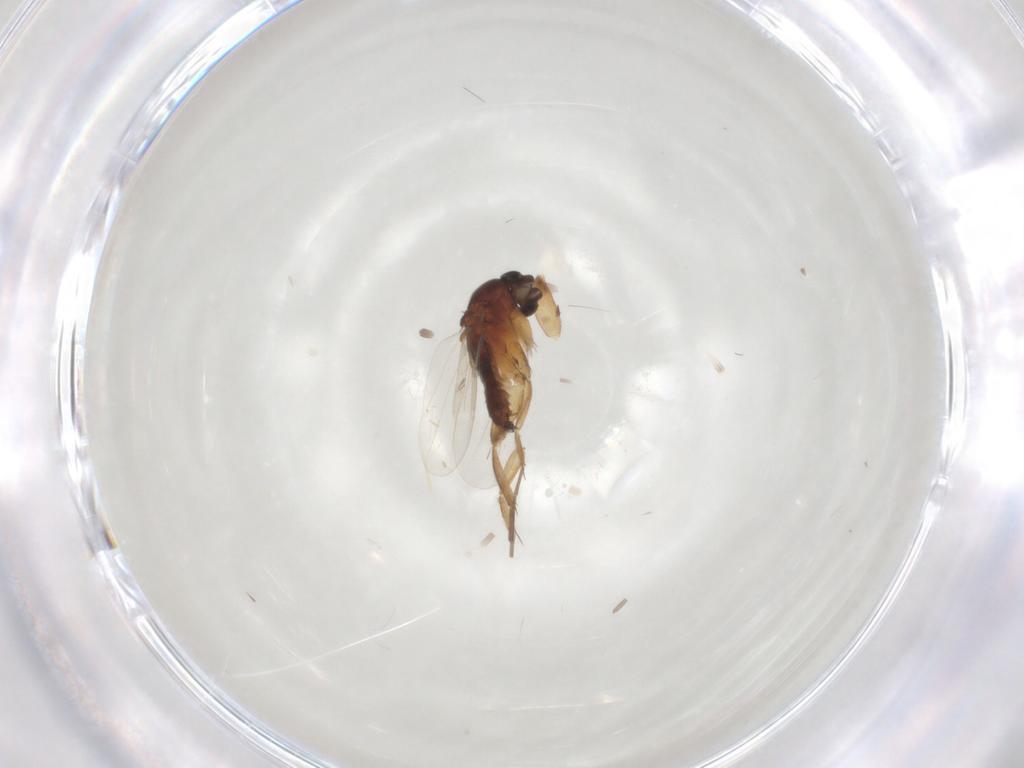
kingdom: Animalia
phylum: Arthropoda
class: Insecta
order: Diptera
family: Phoridae
